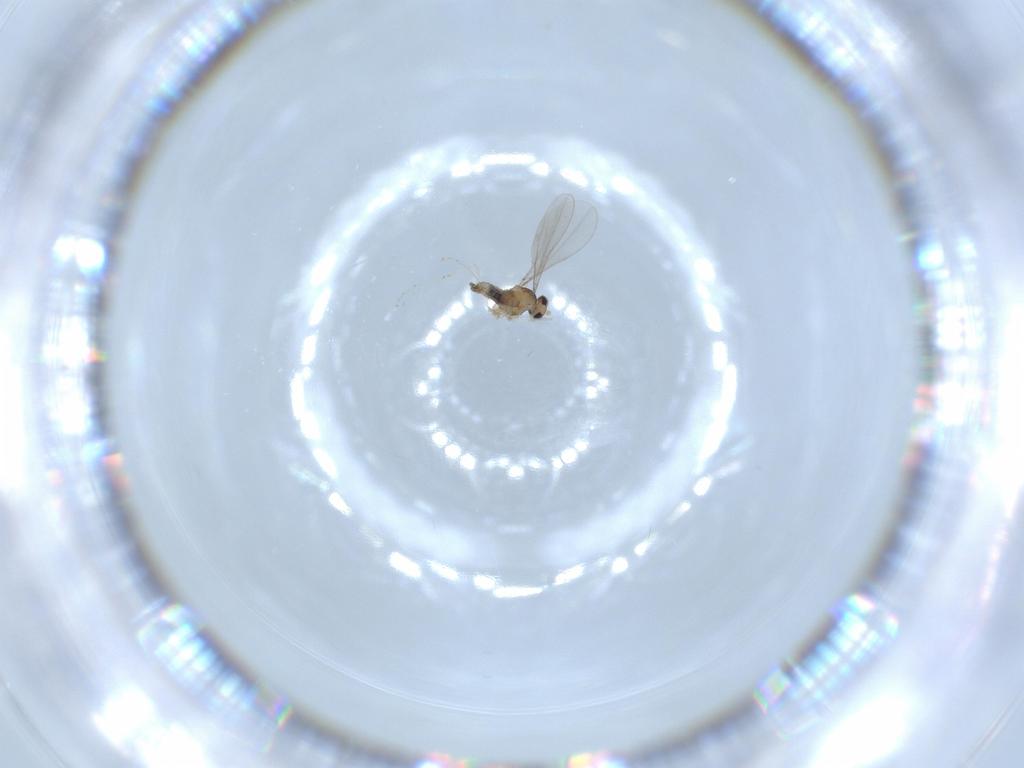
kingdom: Animalia
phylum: Arthropoda
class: Insecta
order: Diptera
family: Cecidomyiidae
